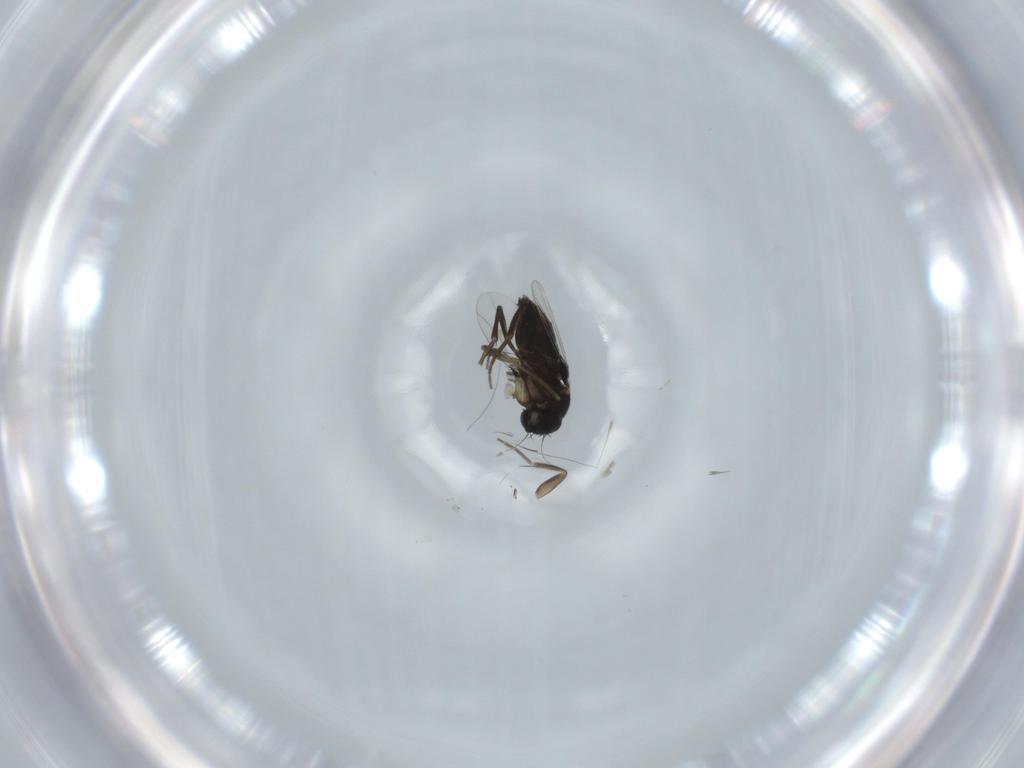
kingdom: Animalia
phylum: Arthropoda
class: Insecta
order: Diptera
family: Phoridae
